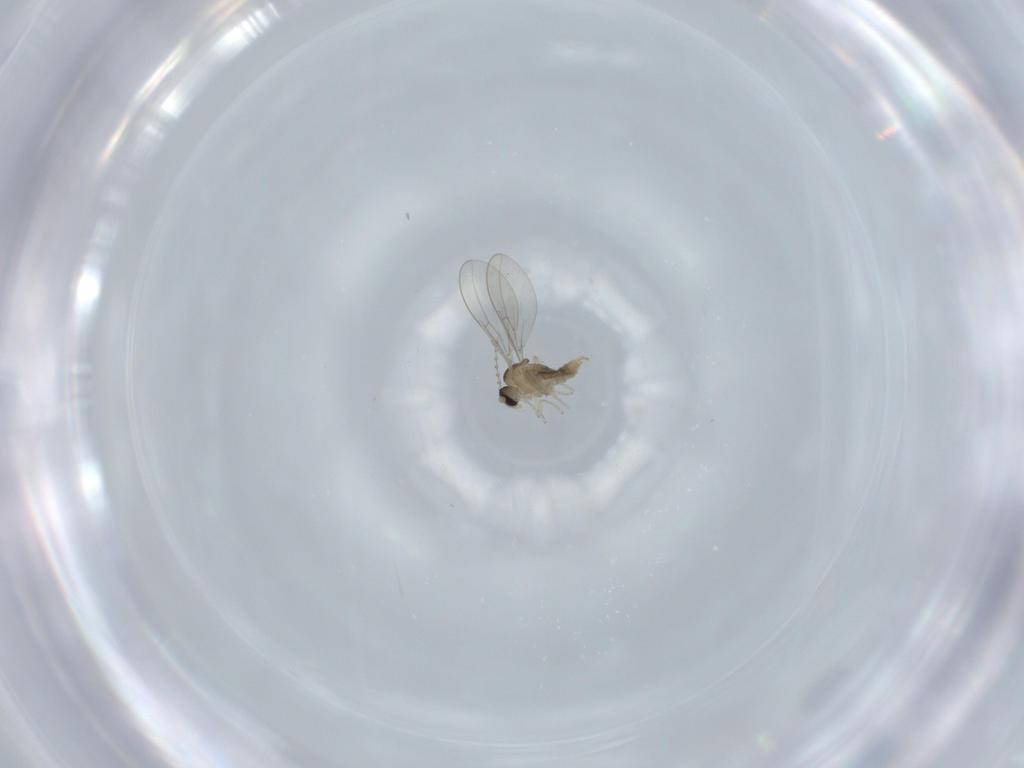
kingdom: Animalia
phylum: Arthropoda
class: Insecta
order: Diptera
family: Cecidomyiidae
